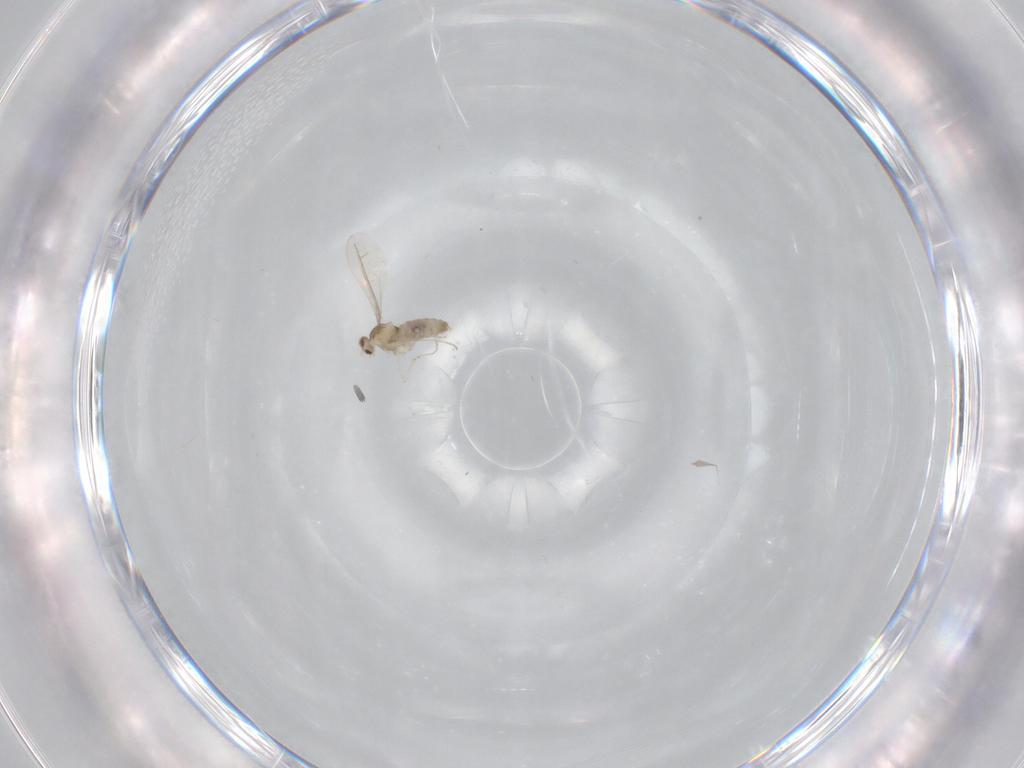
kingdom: Animalia
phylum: Arthropoda
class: Insecta
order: Diptera
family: Cecidomyiidae
